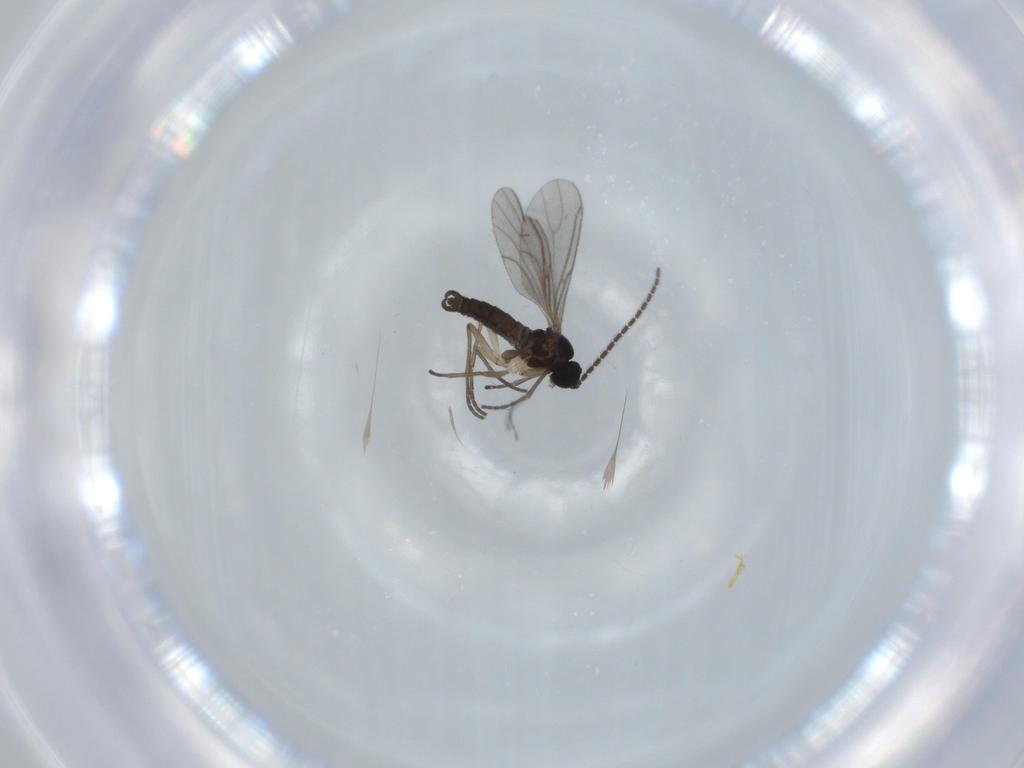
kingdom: Animalia
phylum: Arthropoda
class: Insecta
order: Diptera
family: Sciaridae
